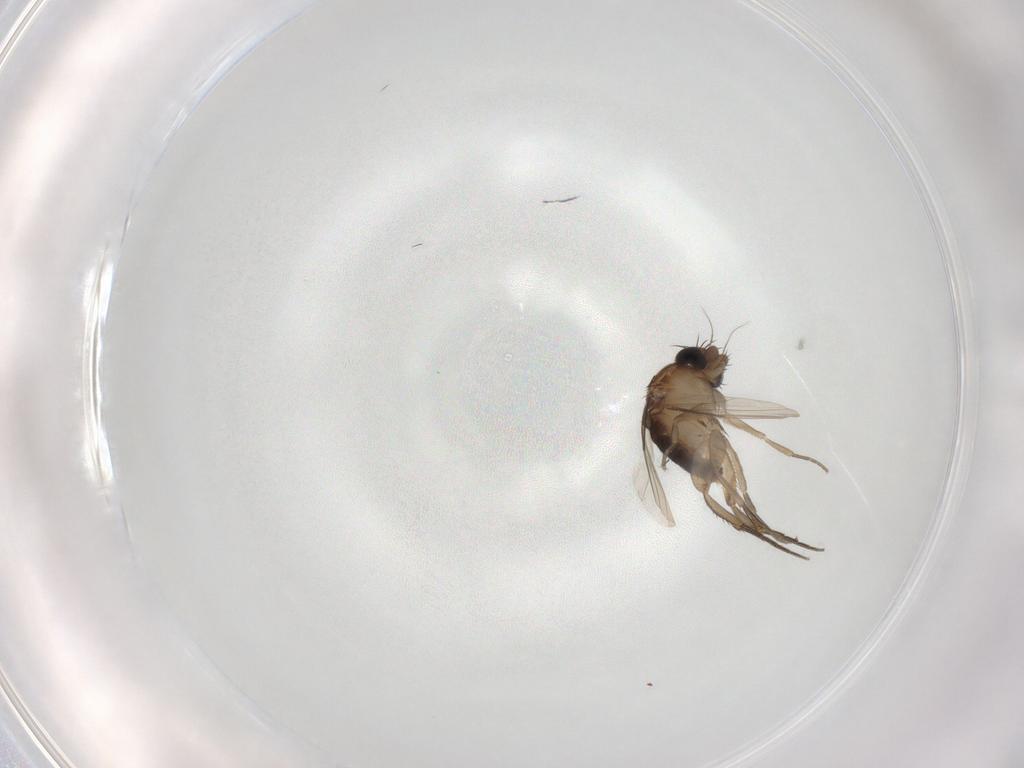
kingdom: Animalia
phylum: Arthropoda
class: Insecta
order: Diptera
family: Phoridae
